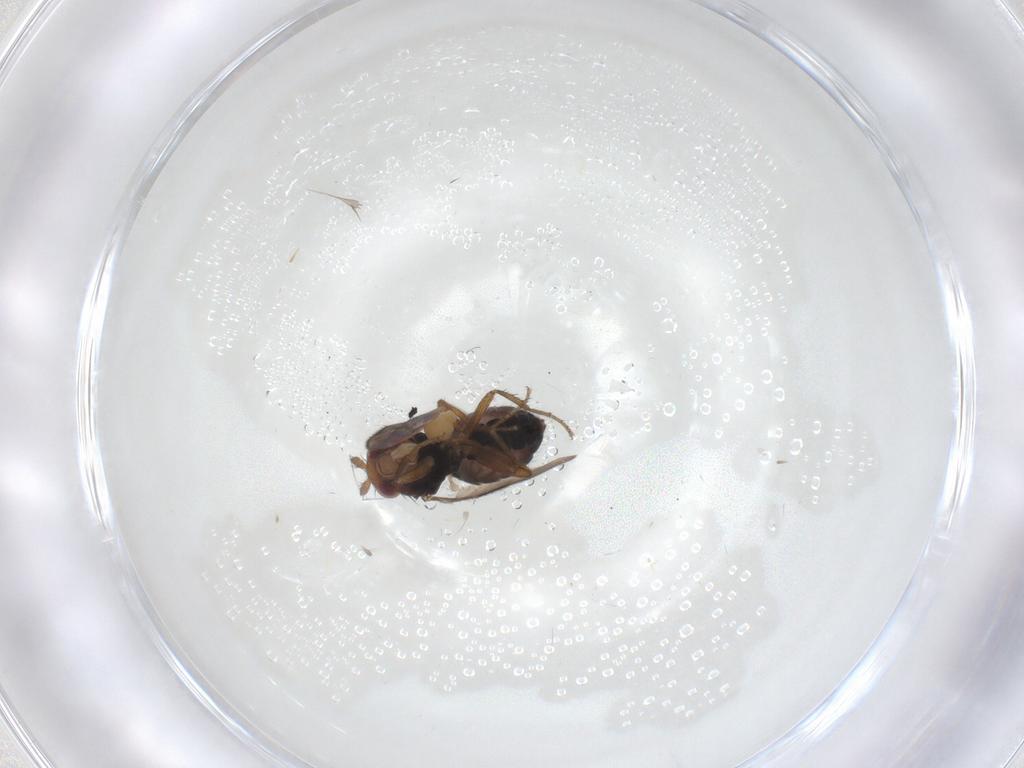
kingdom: Animalia
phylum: Arthropoda
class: Insecta
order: Diptera
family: Sphaeroceridae
